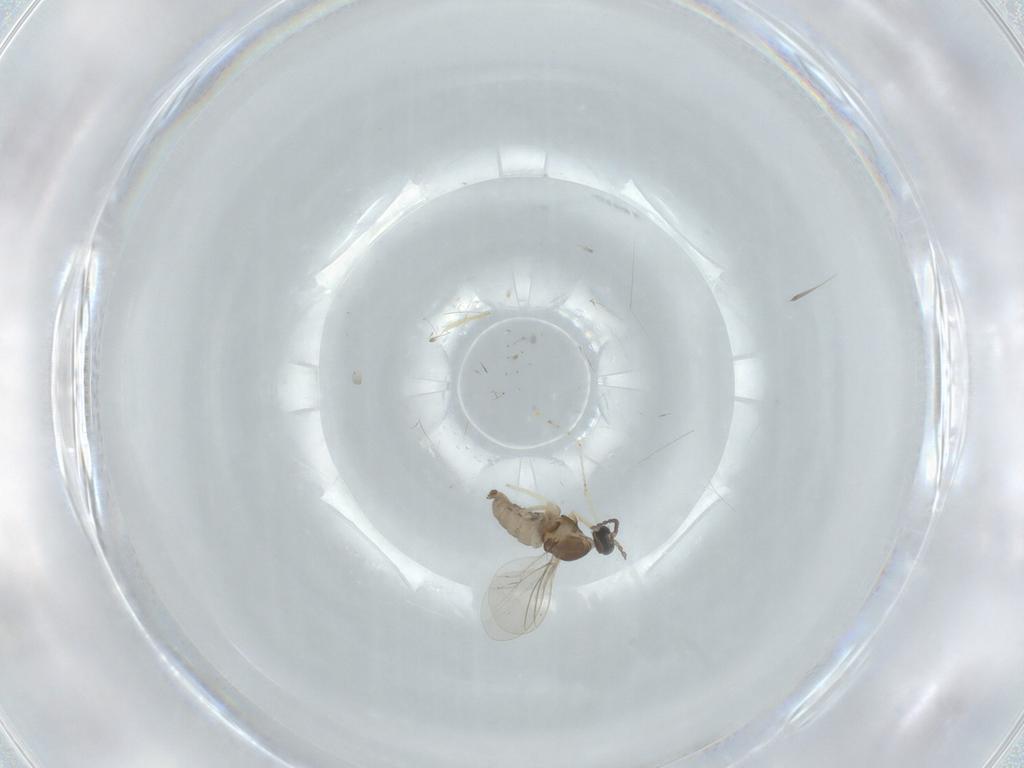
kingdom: Animalia
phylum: Arthropoda
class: Insecta
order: Diptera
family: Cecidomyiidae
